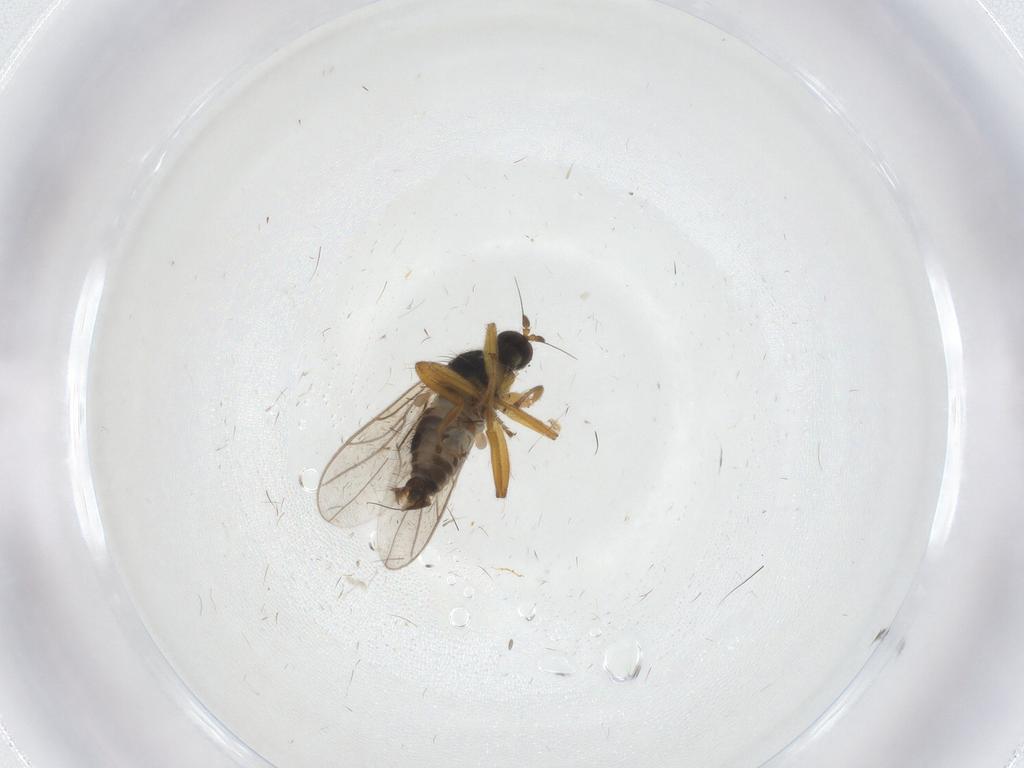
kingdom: Animalia
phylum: Arthropoda
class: Insecta
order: Diptera
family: Hybotidae
